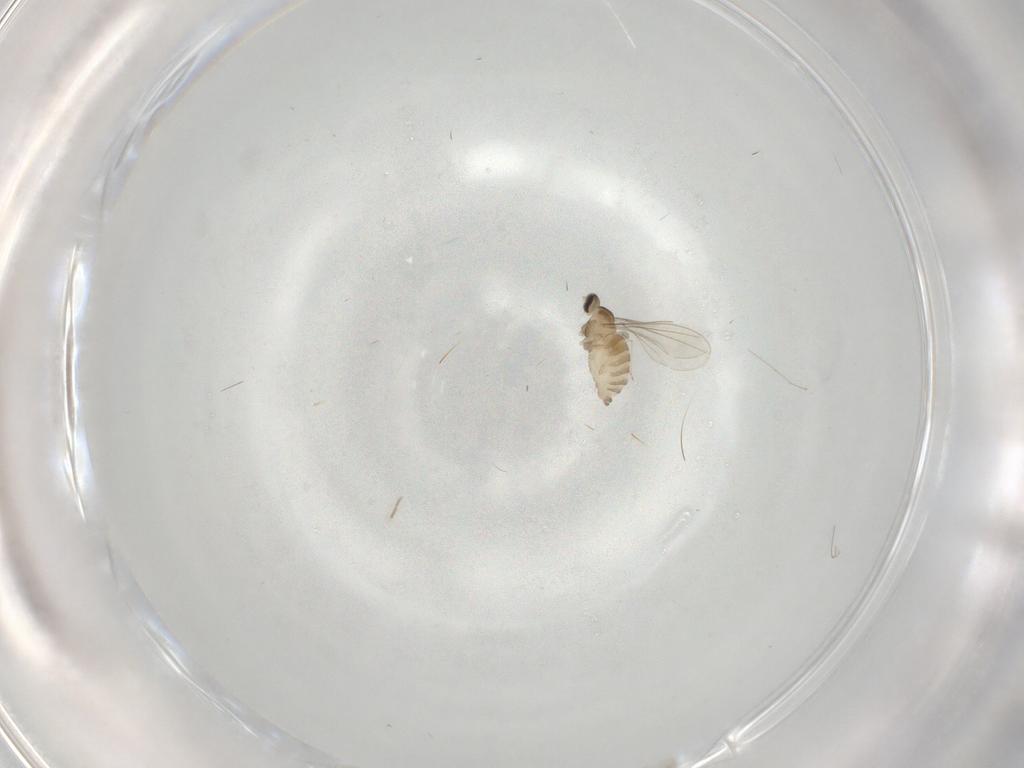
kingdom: Animalia
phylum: Arthropoda
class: Insecta
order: Diptera
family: Cecidomyiidae
